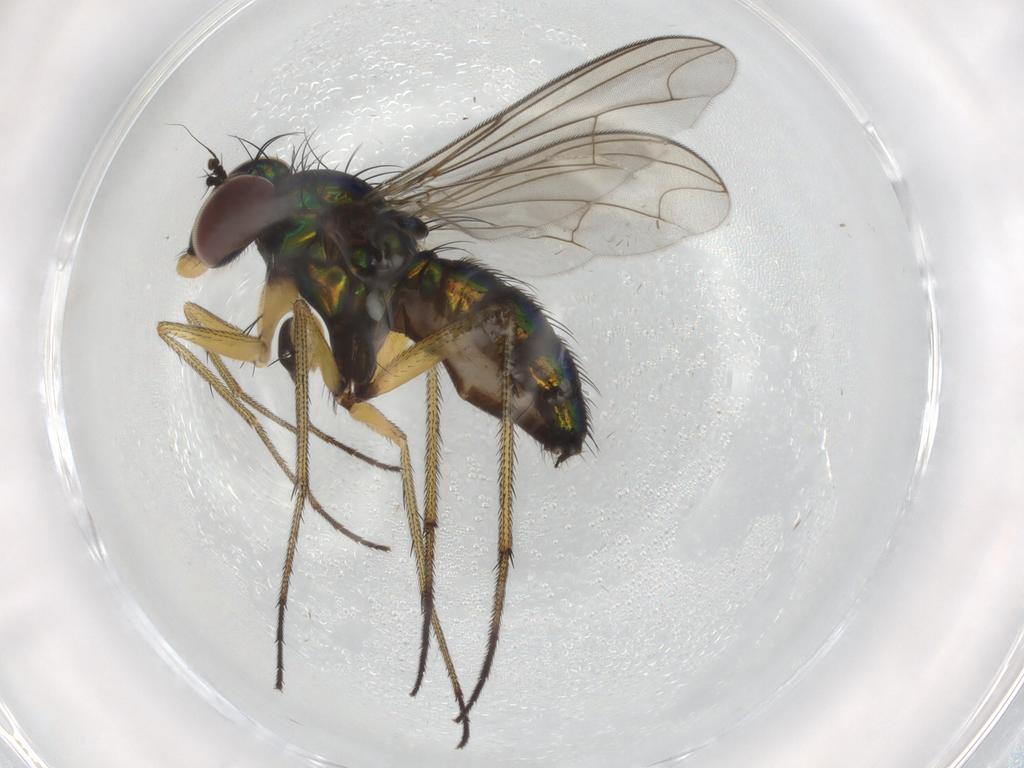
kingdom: Animalia
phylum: Arthropoda
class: Insecta
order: Diptera
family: Dolichopodidae
